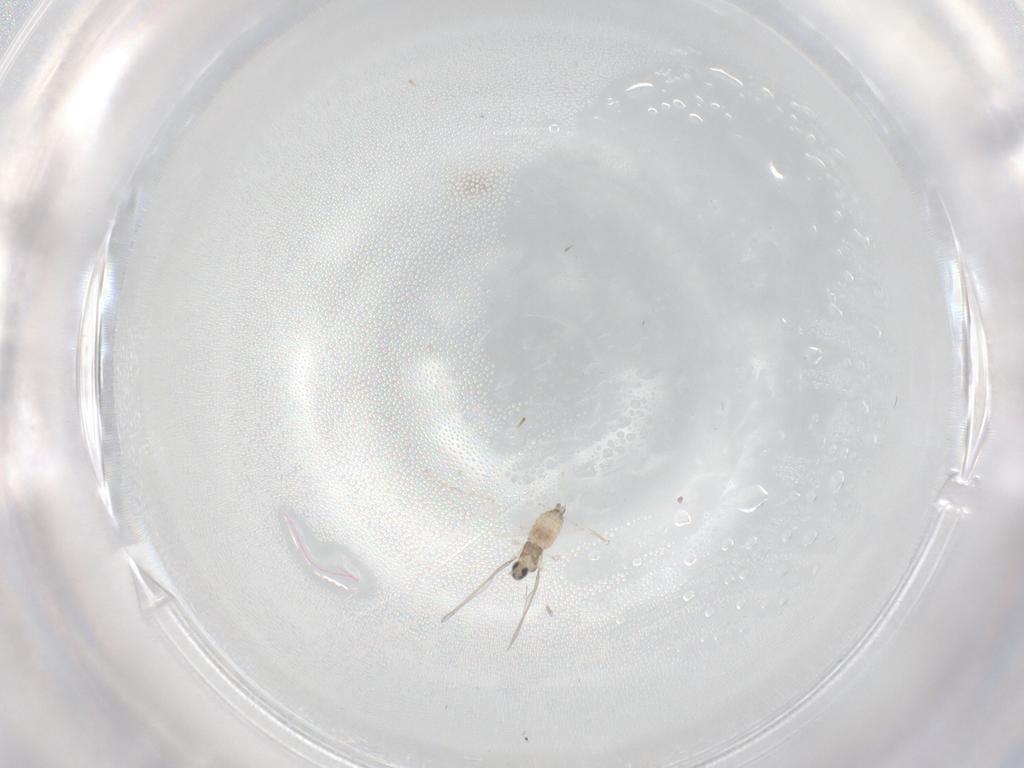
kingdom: Animalia
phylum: Arthropoda
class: Insecta
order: Diptera
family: Cecidomyiidae
